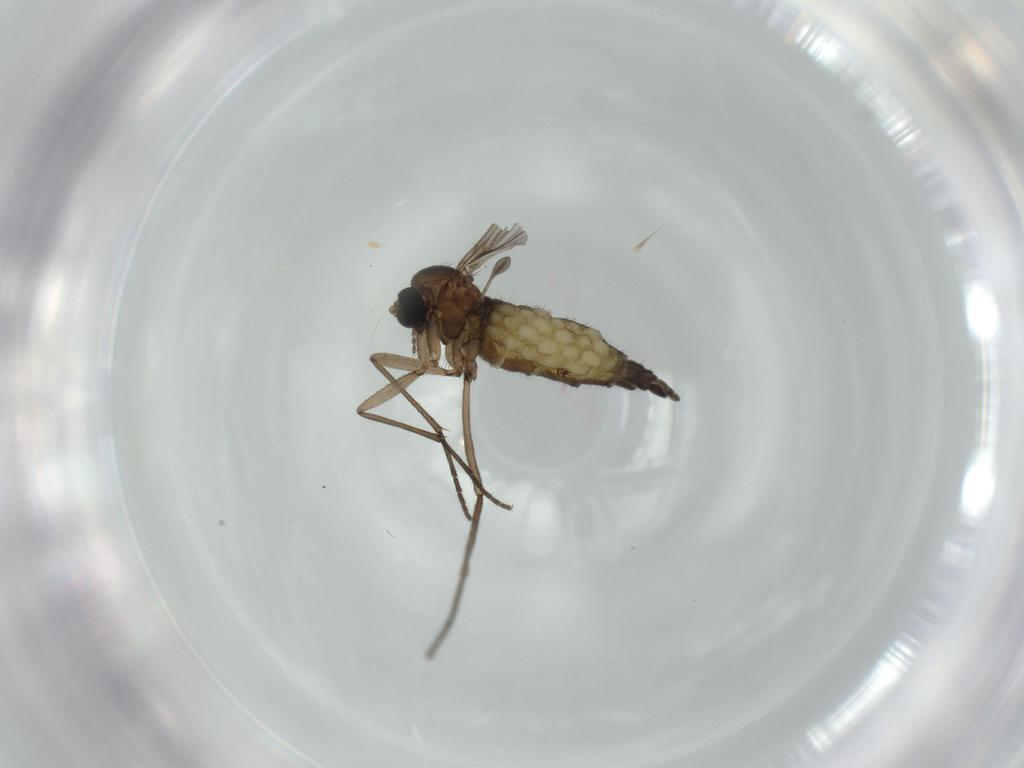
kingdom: Animalia
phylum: Arthropoda
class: Insecta
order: Diptera
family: Sciaridae
